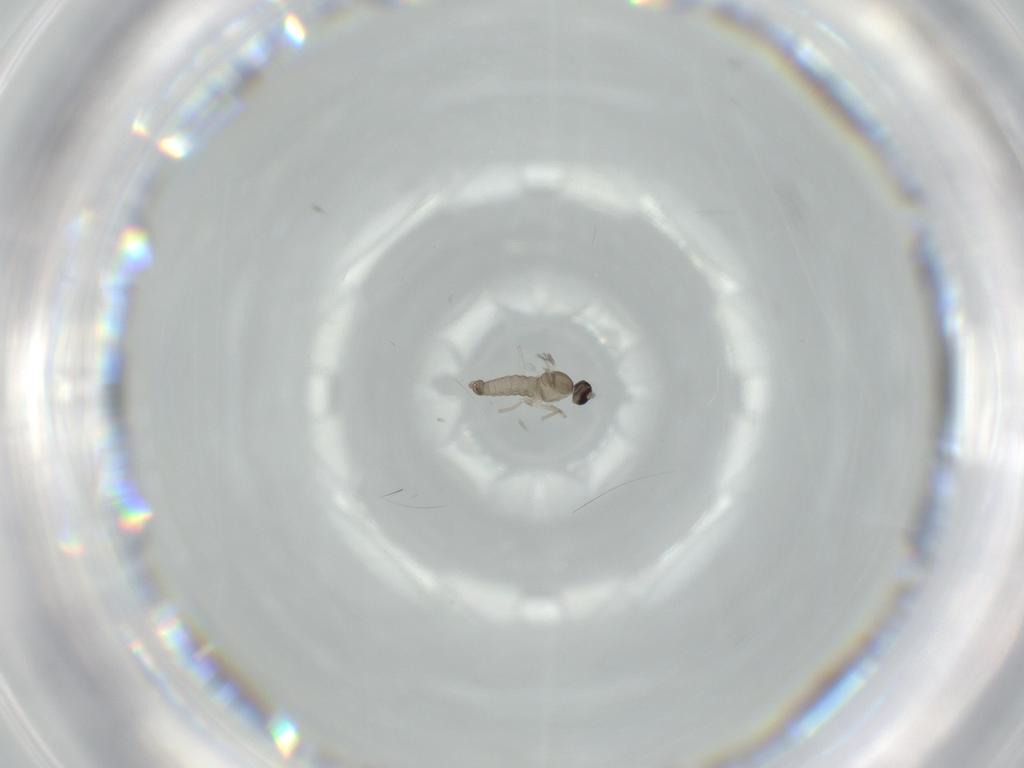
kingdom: Animalia
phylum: Arthropoda
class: Insecta
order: Diptera
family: Cecidomyiidae
